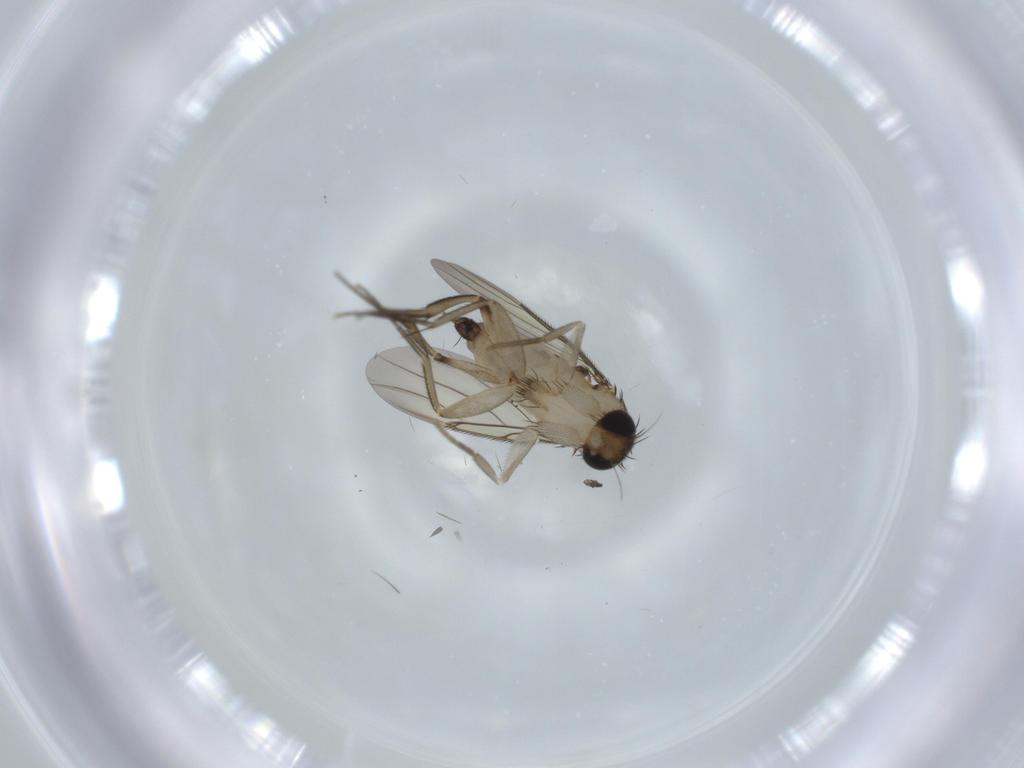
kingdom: Animalia
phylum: Arthropoda
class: Insecta
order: Diptera
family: Phoridae
